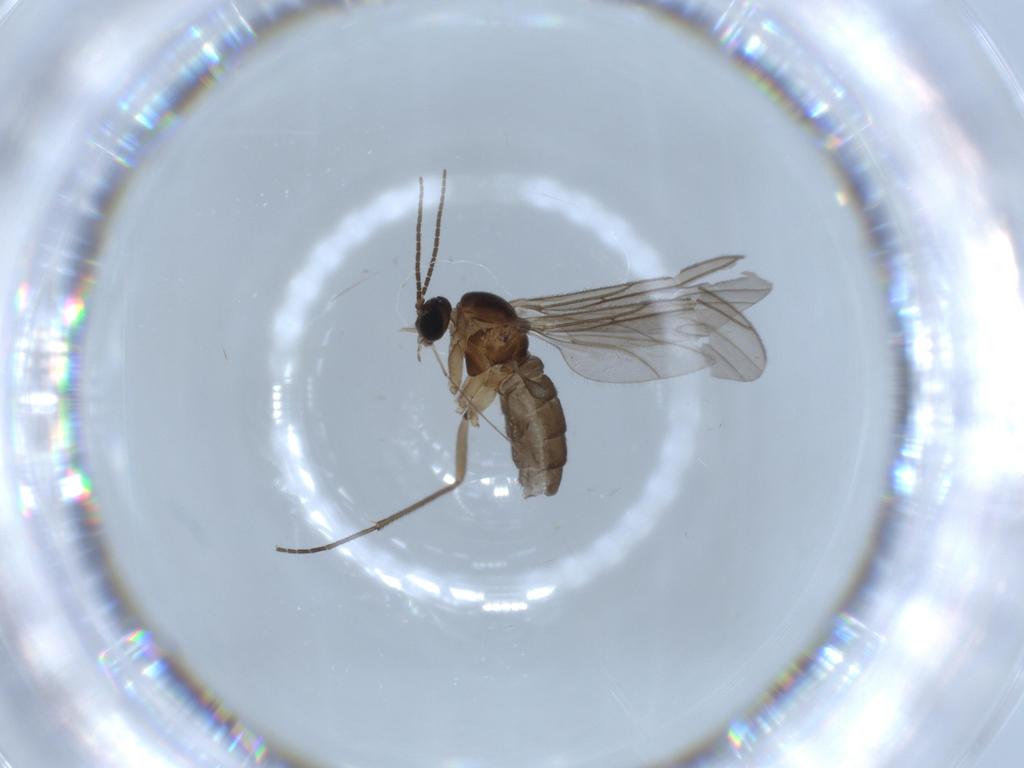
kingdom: Animalia
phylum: Arthropoda
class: Insecta
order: Diptera
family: Sciaridae
